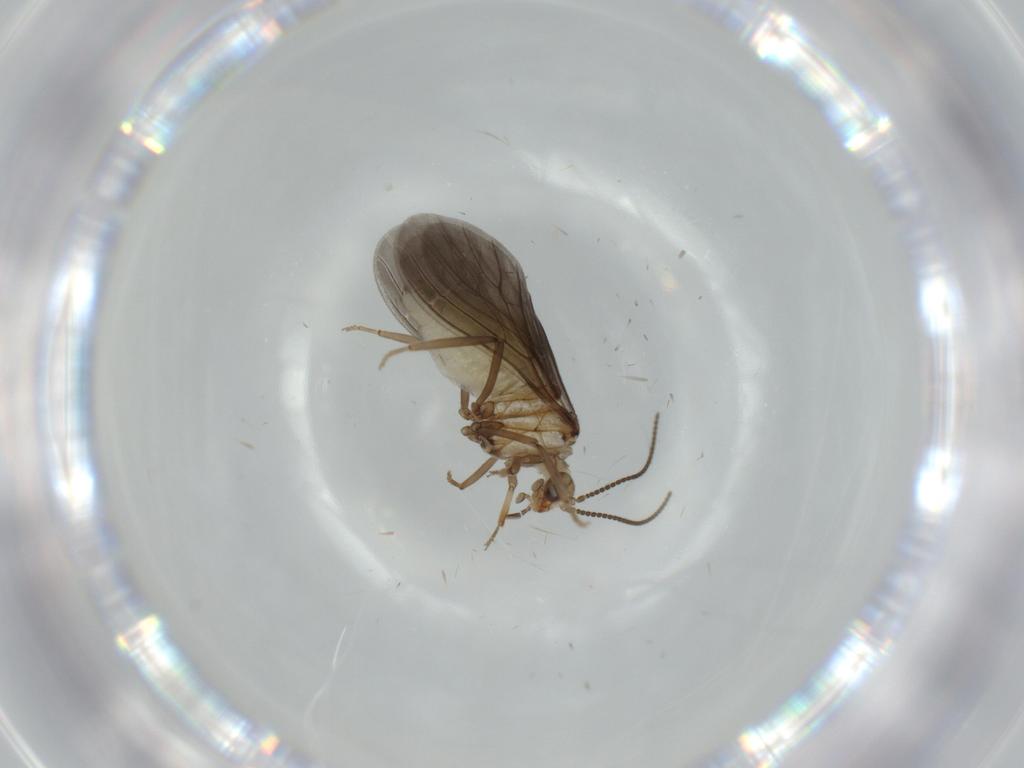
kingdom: Animalia
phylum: Arthropoda
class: Insecta
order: Neuroptera
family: Coniopterygidae
